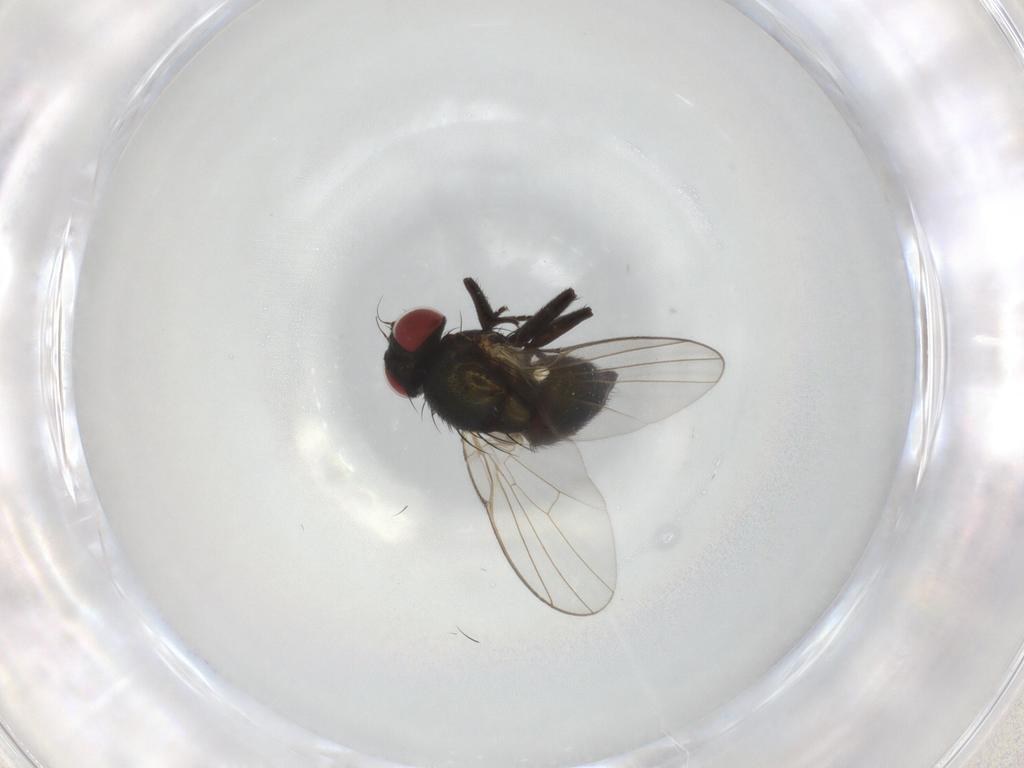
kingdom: Animalia
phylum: Arthropoda
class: Insecta
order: Diptera
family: Agromyzidae
